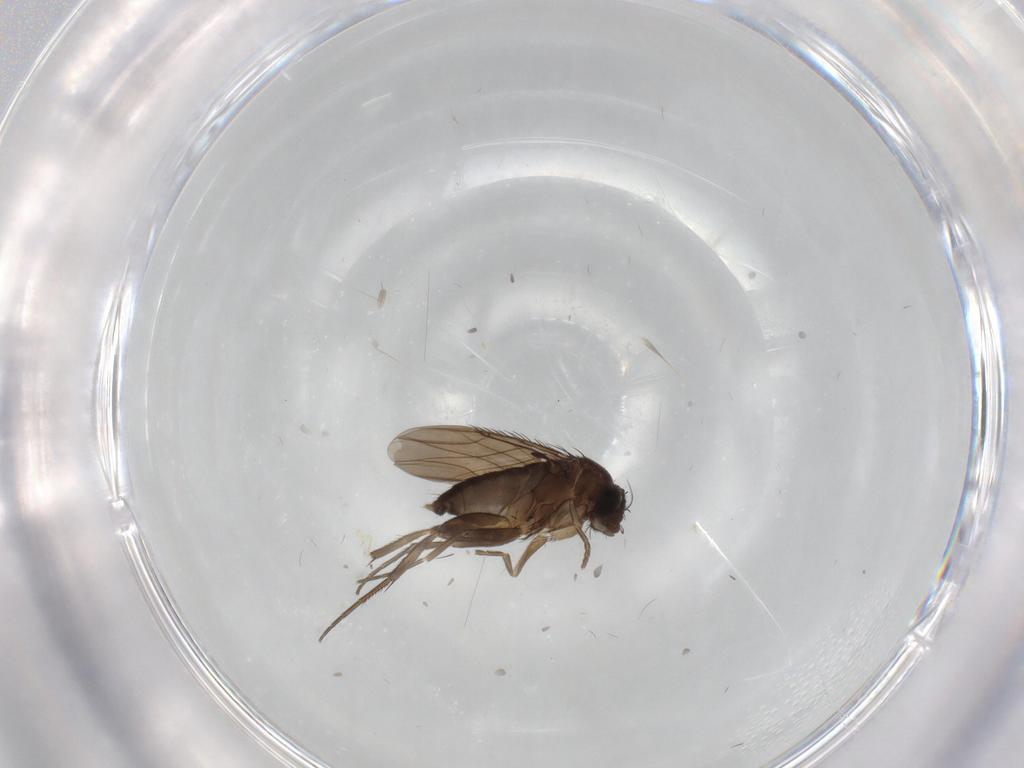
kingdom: Animalia
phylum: Arthropoda
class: Insecta
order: Diptera
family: Phoridae
